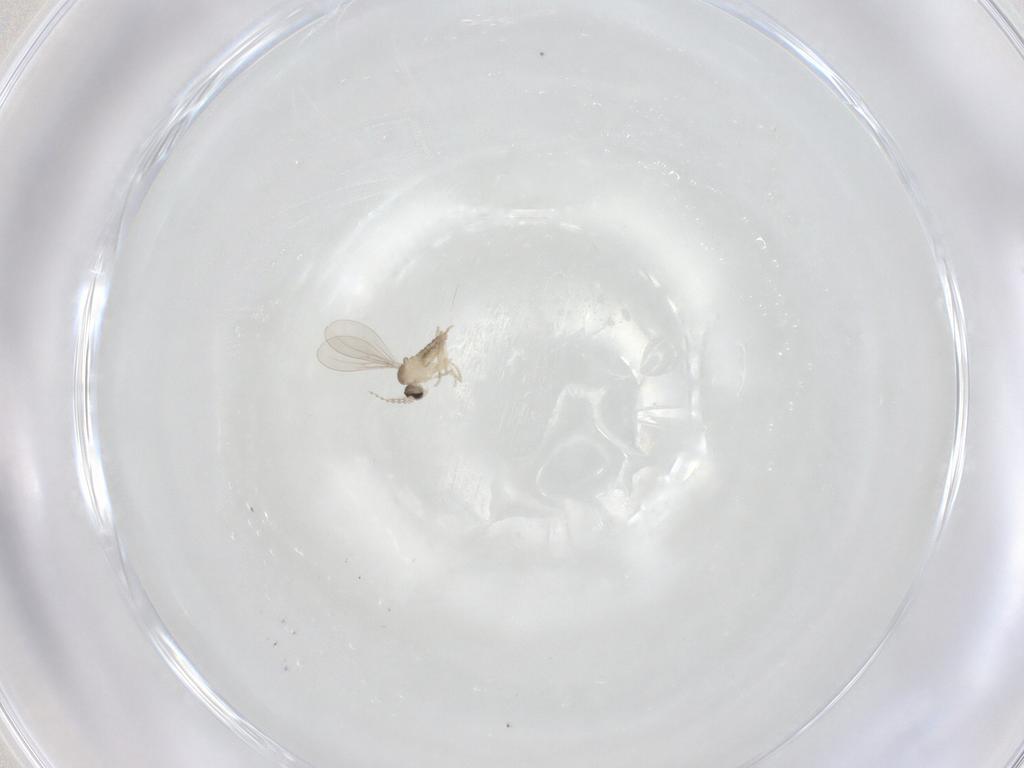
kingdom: Animalia
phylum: Arthropoda
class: Insecta
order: Diptera
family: Ceratopogonidae
